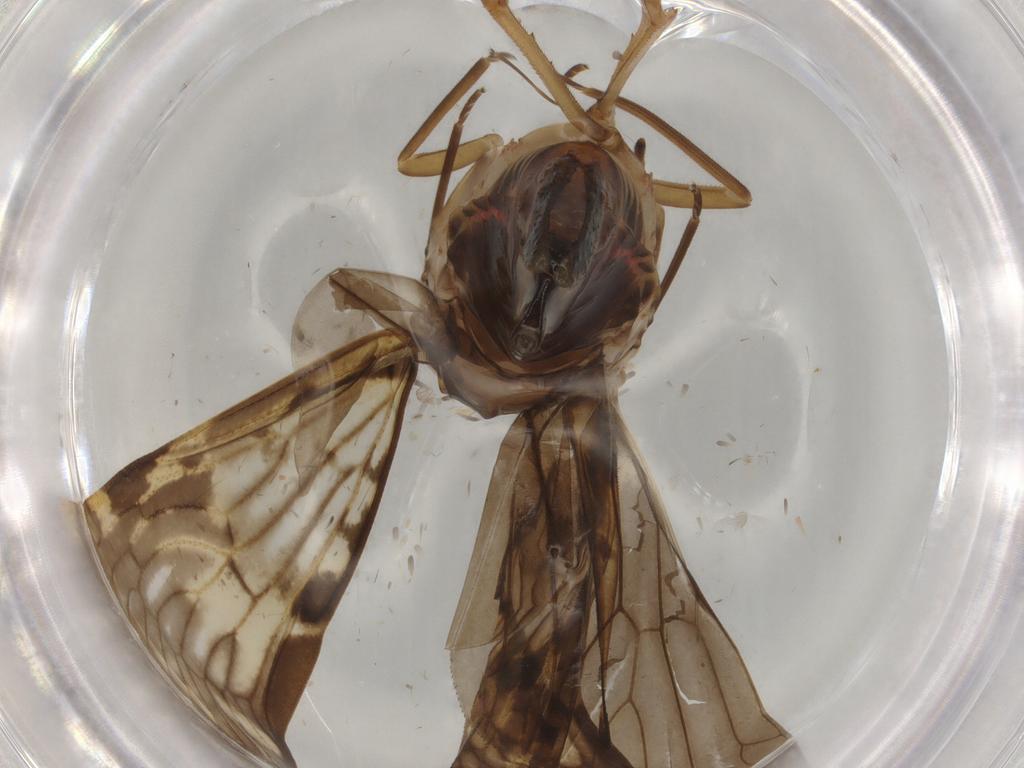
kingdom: Animalia
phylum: Arthropoda
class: Insecta
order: Hemiptera
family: Cixiidae
